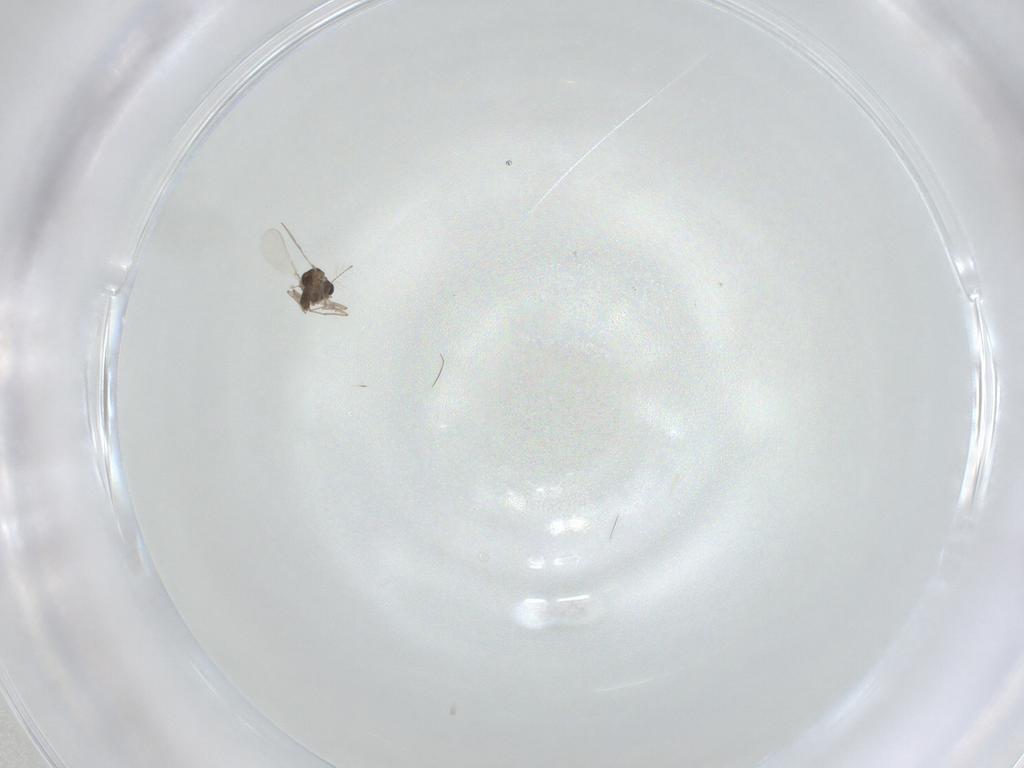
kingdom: Animalia
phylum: Arthropoda
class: Insecta
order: Diptera
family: Chironomidae
